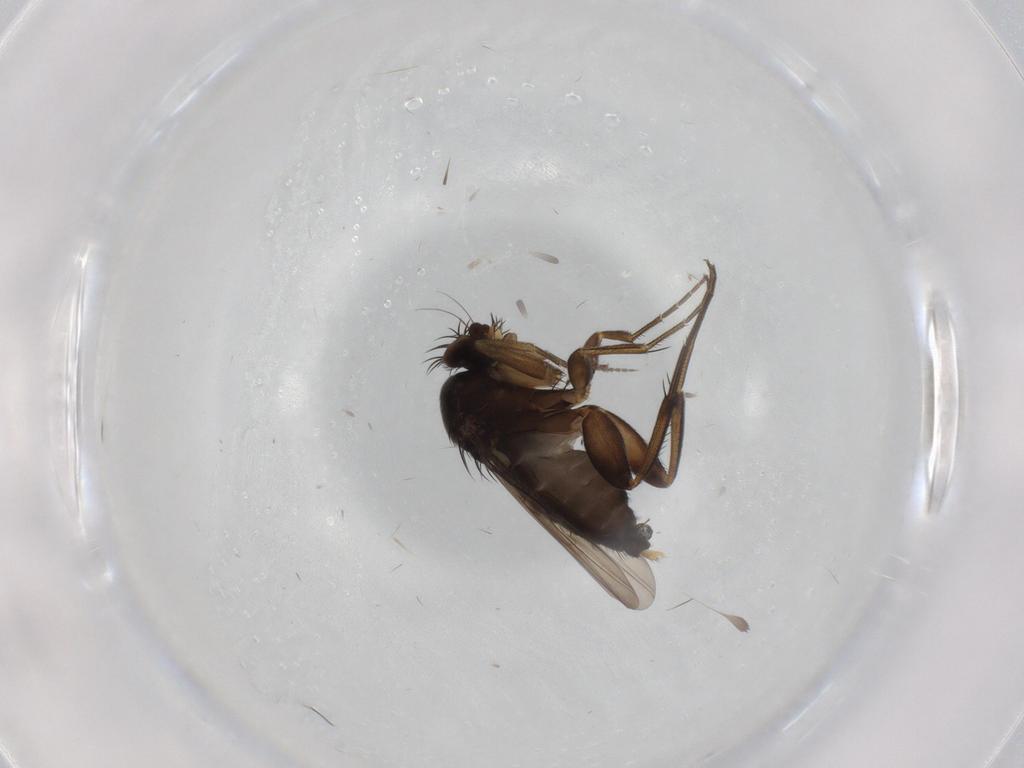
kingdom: Animalia
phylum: Arthropoda
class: Insecta
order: Diptera
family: Phoridae
